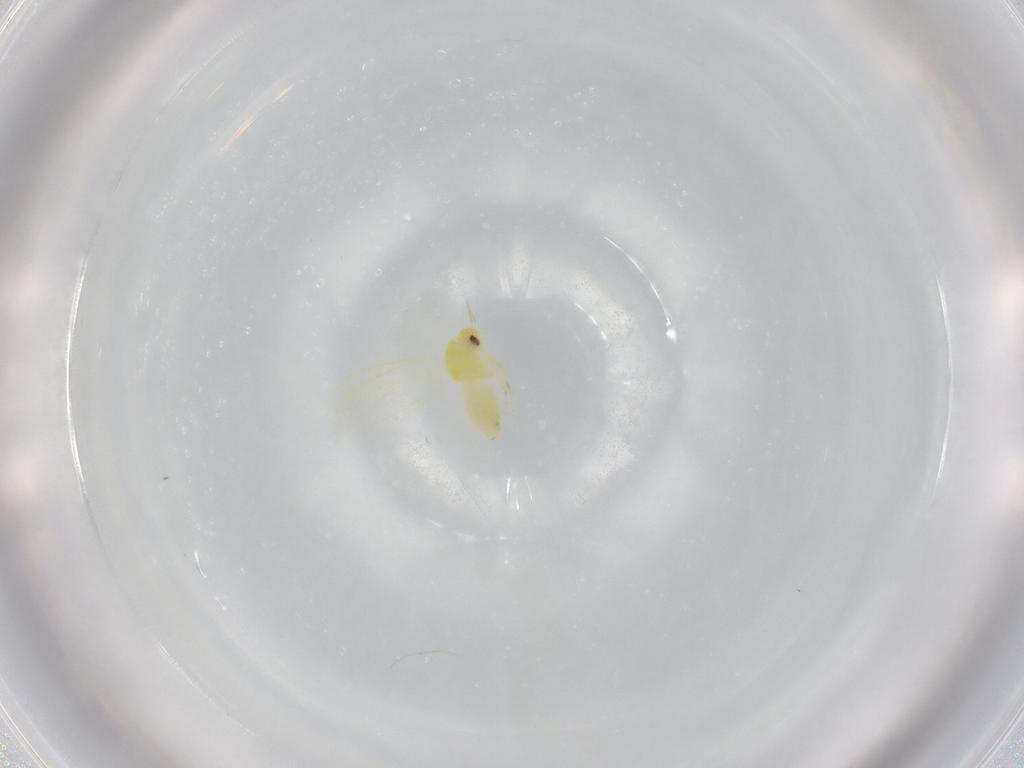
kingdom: Animalia
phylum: Arthropoda
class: Insecta
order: Hemiptera
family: Aleyrodidae
